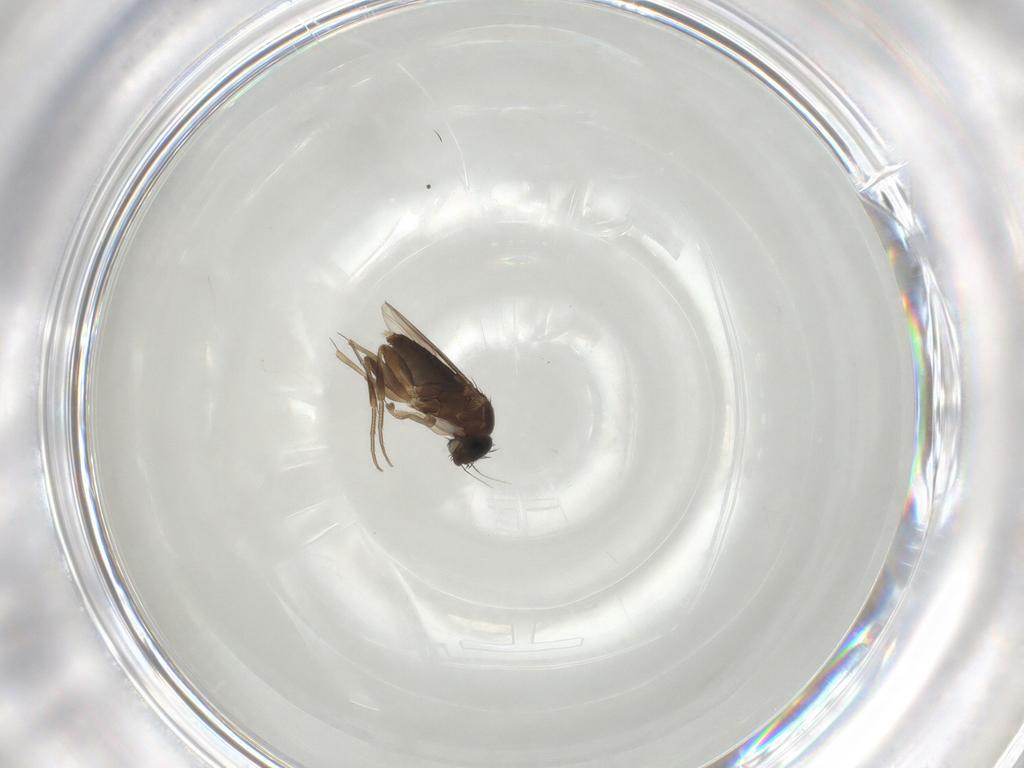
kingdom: Animalia
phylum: Arthropoda
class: Insecta
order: Diptera
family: Phoridae
